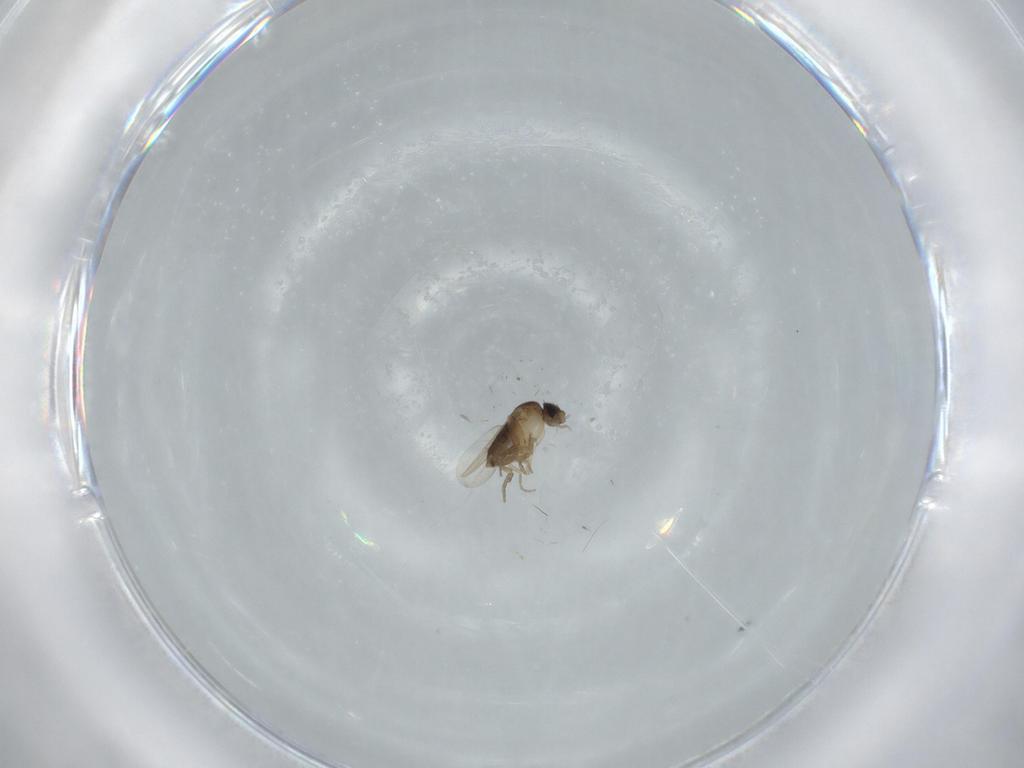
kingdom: Animalia
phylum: Arthropoda
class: Insecta
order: Diptera
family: Phoridae
